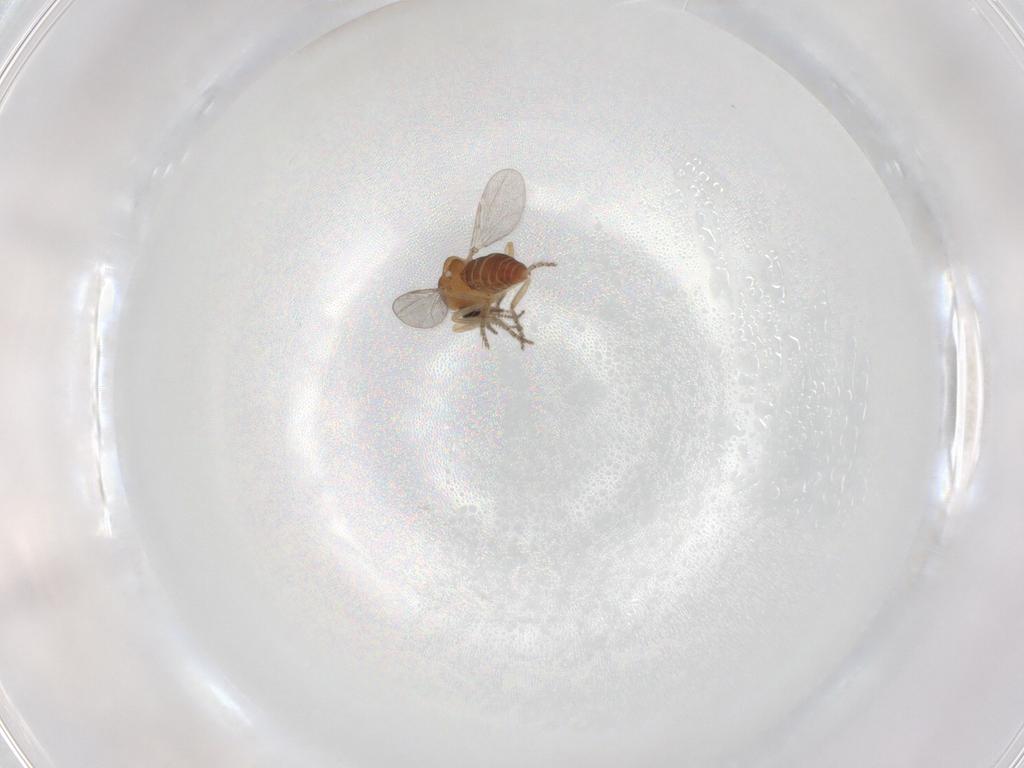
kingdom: Animalia
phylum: Arthropoda
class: Insecta
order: Diptera
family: Ceratopogonidae
